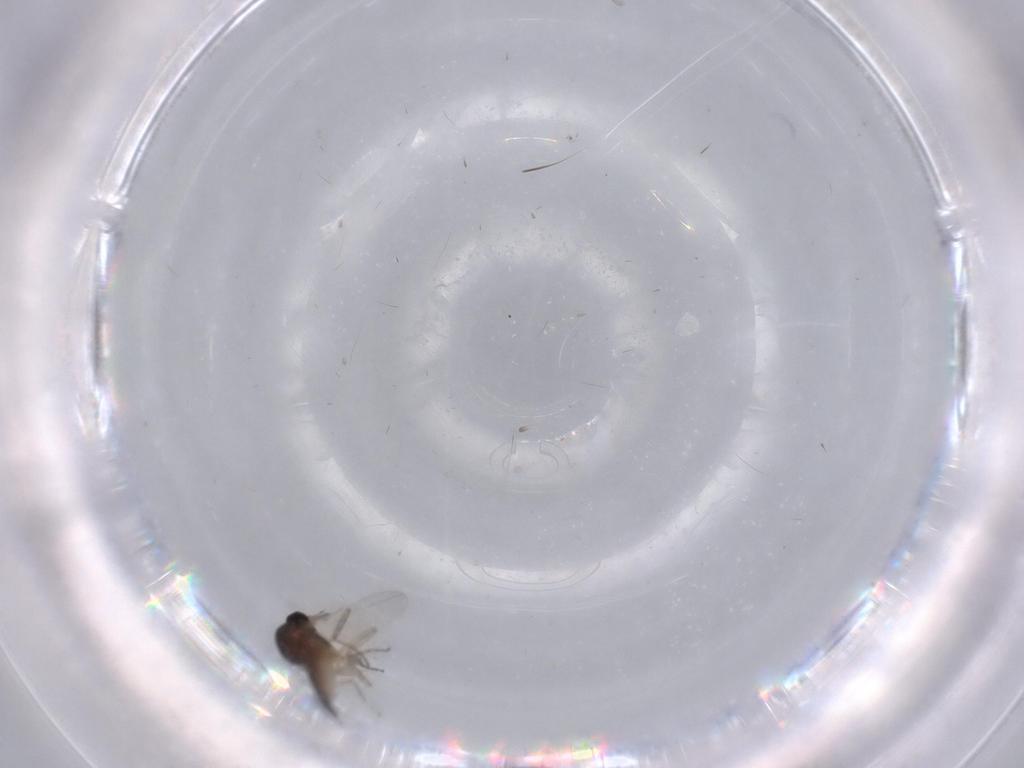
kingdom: Animalia
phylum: Arthropoda
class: Insecta
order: Diptera
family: Ceratopogonidae
